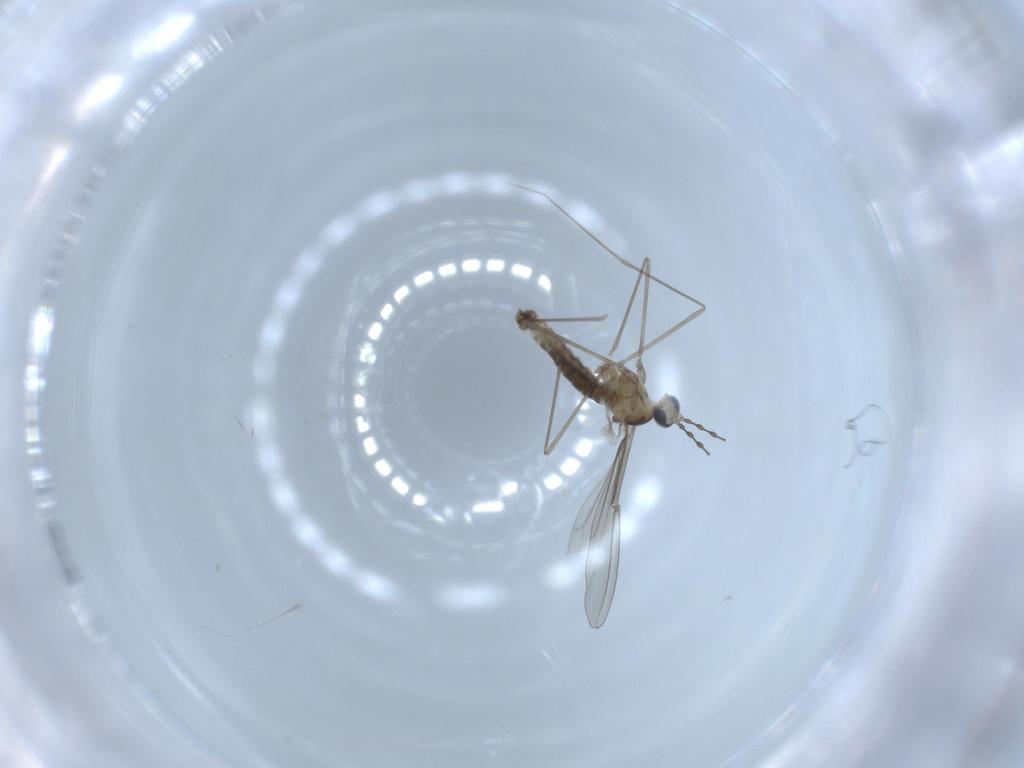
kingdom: Animalia
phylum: Arthropoda
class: Insecta
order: Diptera
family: Cecidomyiidae
